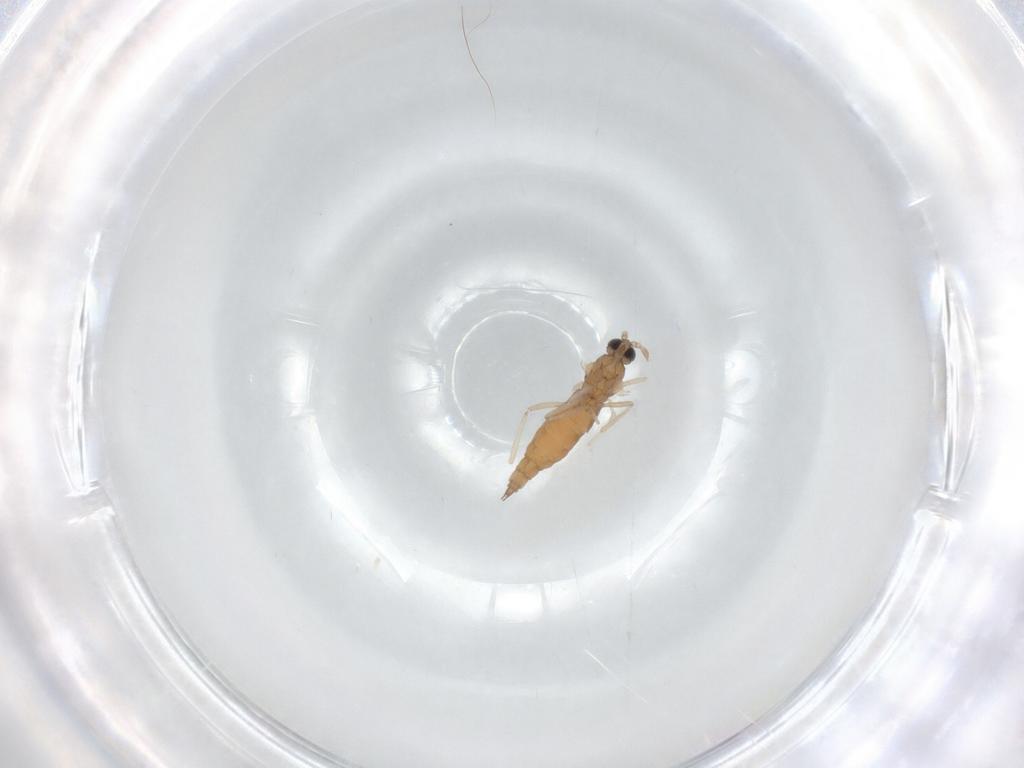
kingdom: Animalia
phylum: Arthropoda
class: Insecta
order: Diptera
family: Cecidomyiidae
